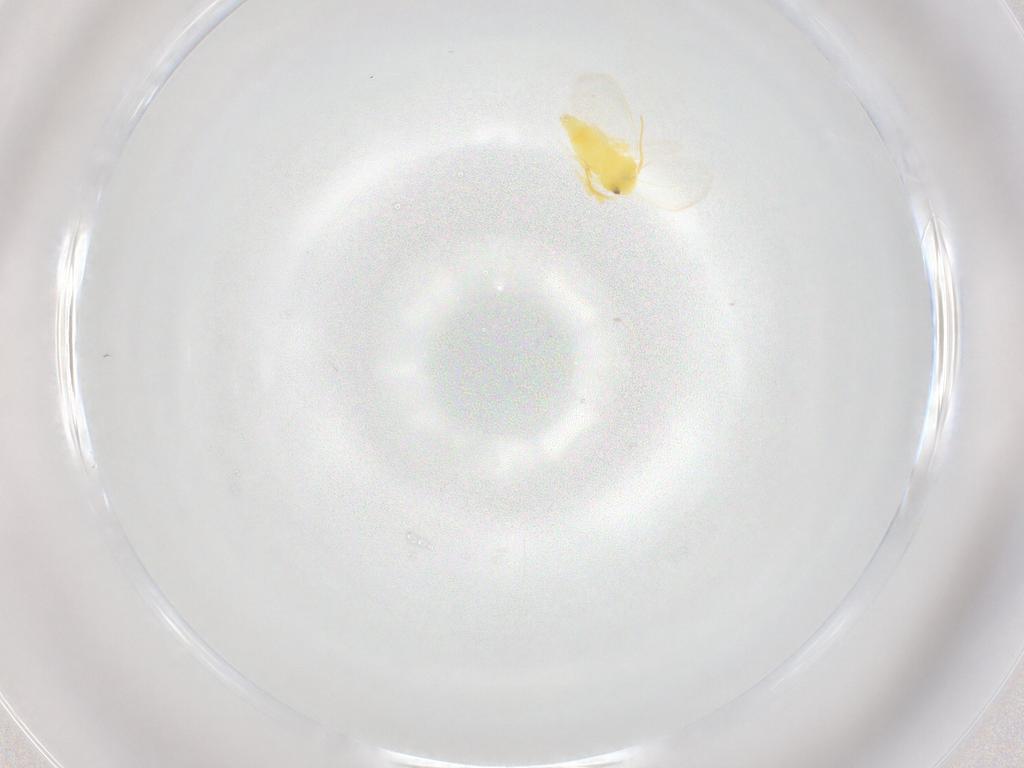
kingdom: Animalia
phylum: Arthropoda
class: Insecta
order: Hemiptera
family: Aleyrodidae
